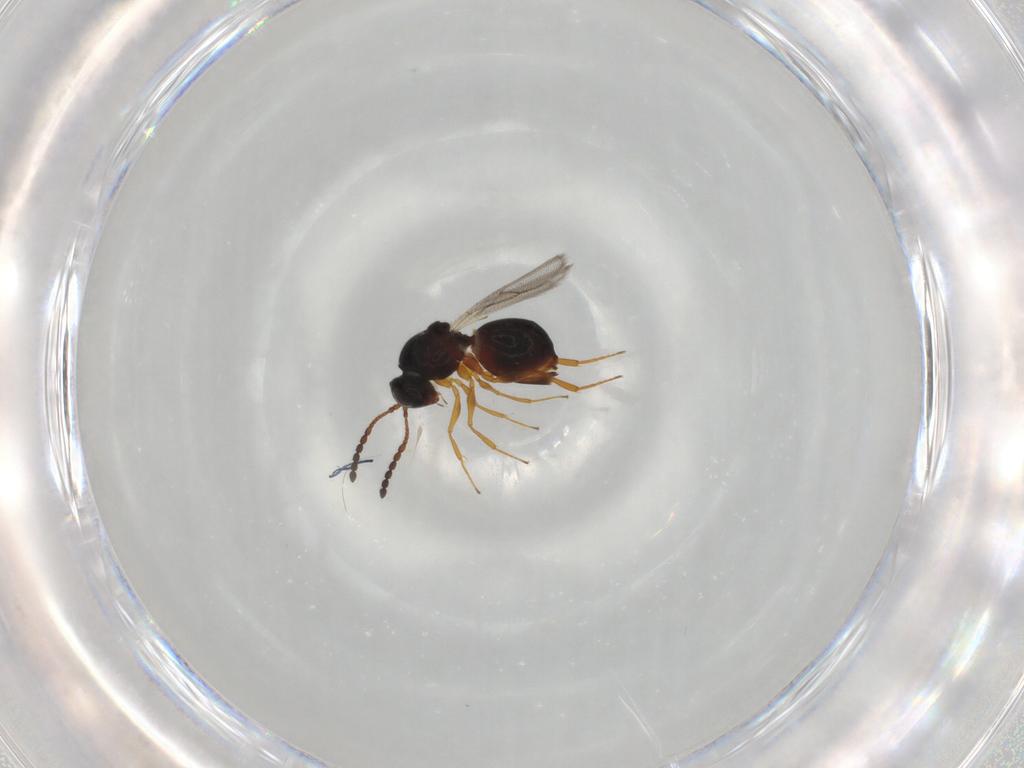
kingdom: Animalia
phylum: Arthropoda
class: Insecta
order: Hymenoptera
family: Figitidae
